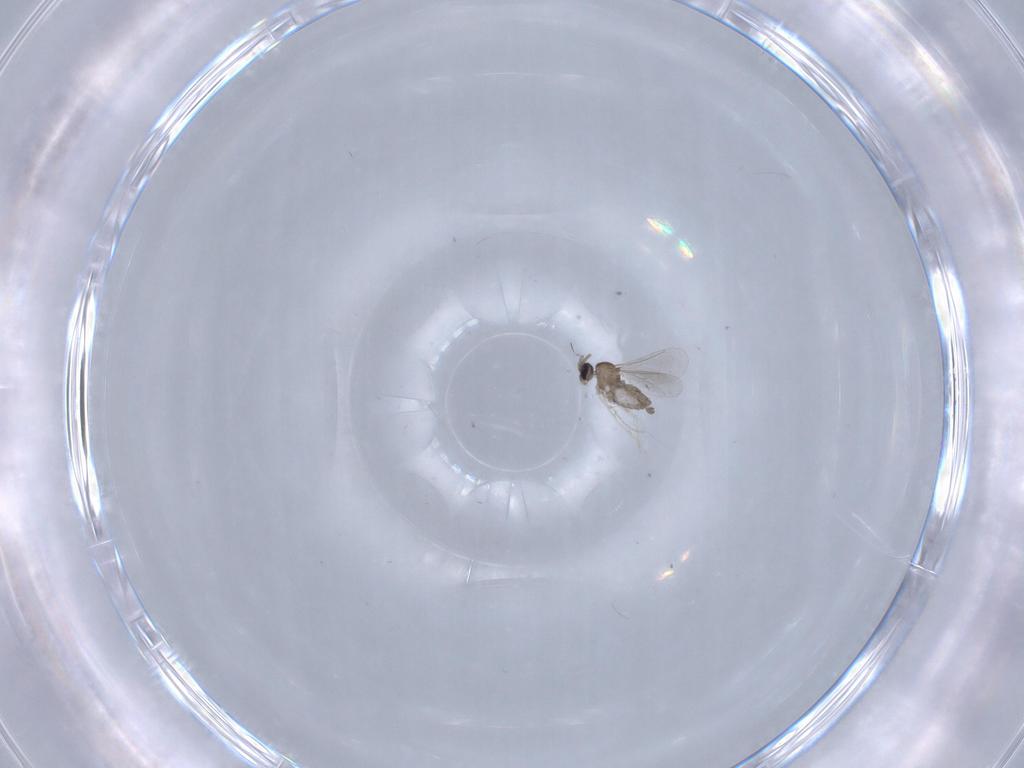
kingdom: Animalia
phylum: Arthropoda
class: Insecta
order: Diptera
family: Cecidomyiidae
